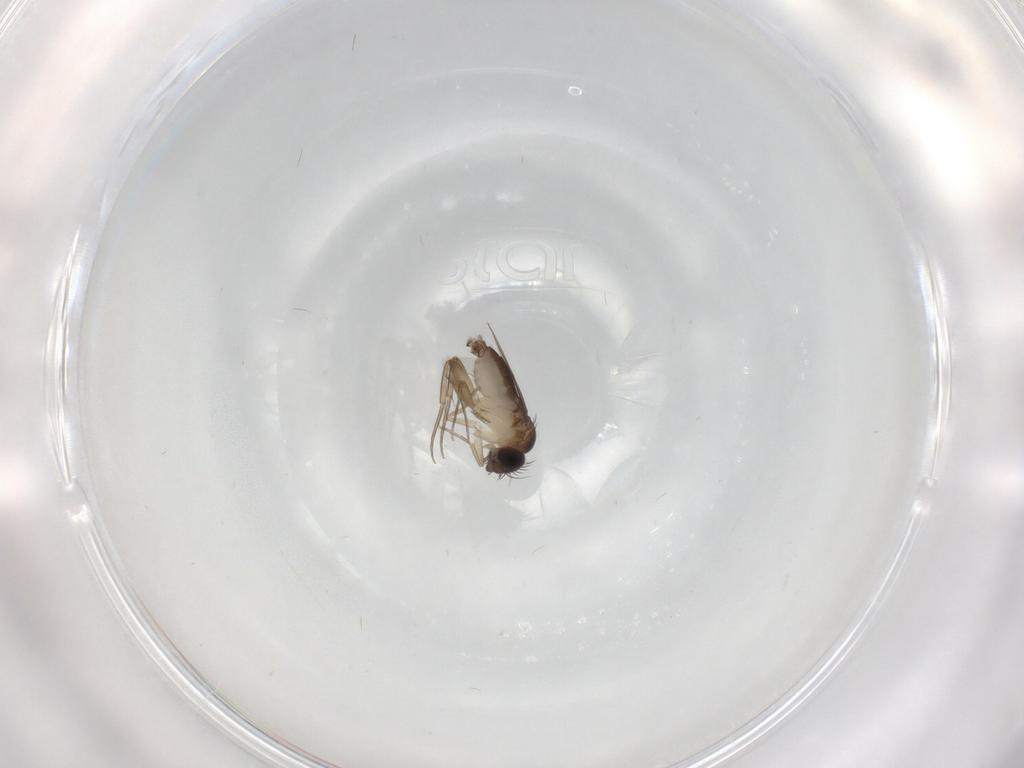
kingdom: Animalia
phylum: Arthropoda
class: Insecta
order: Diptera
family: Phoridae
